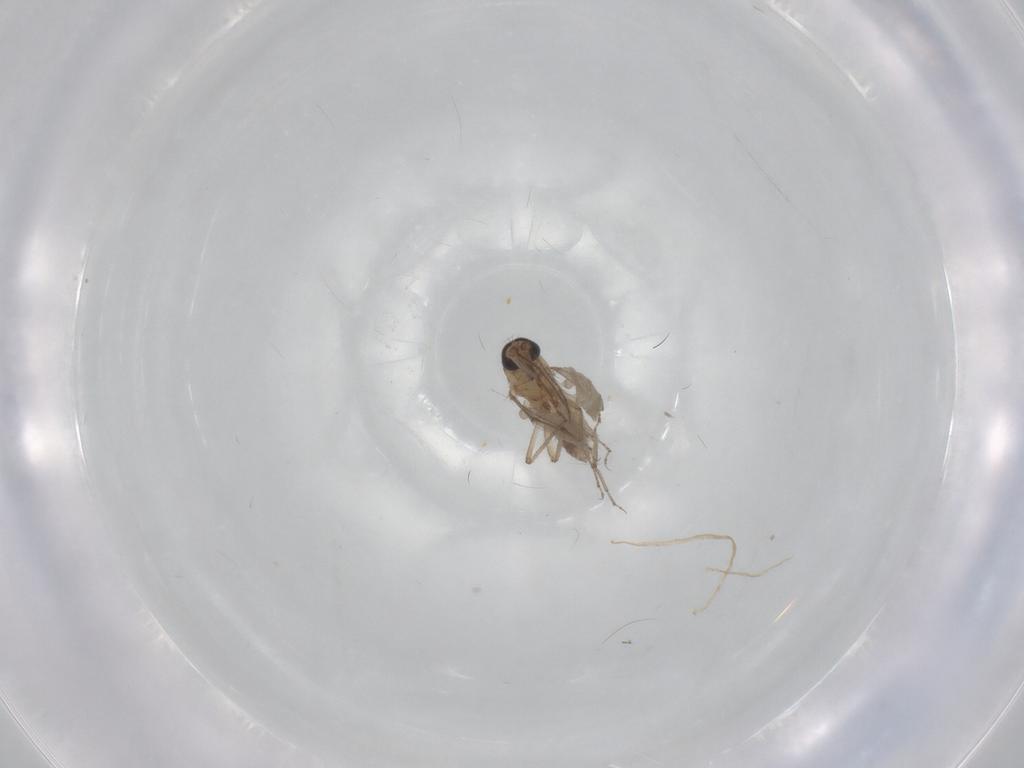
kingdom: Animalia
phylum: Arthropoda
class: Insecta
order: Diptera
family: Ceratopogonidae
